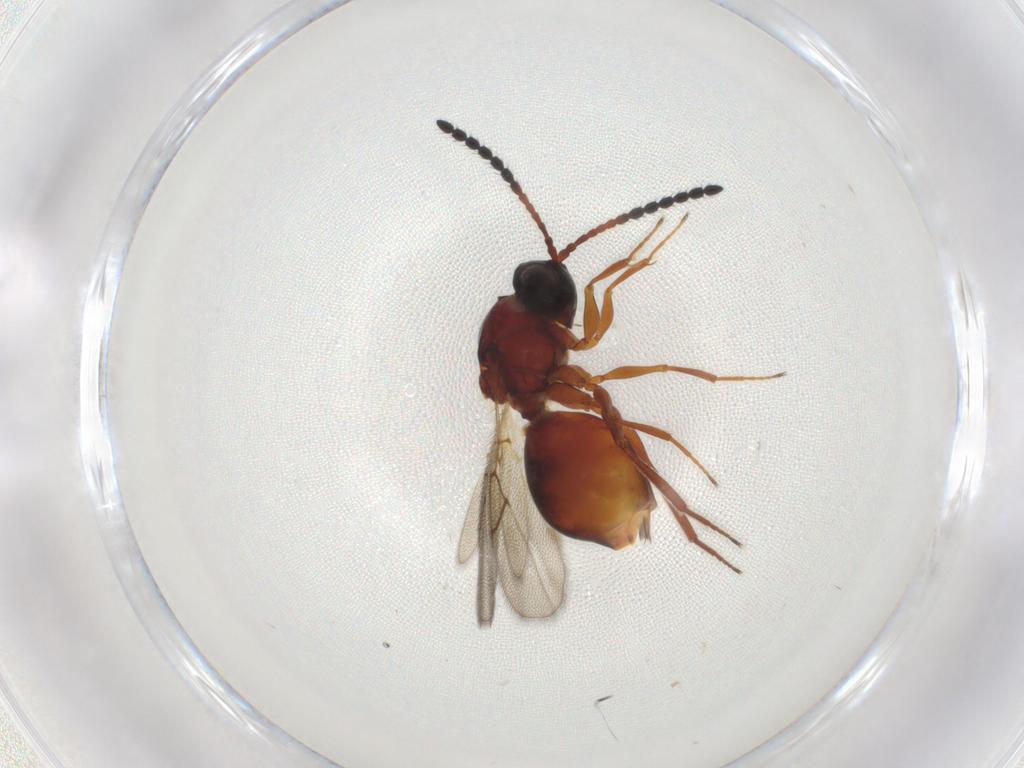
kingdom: Animalia
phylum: Arthropoda
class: Insecta
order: Hymenoptera
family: Figitidae
